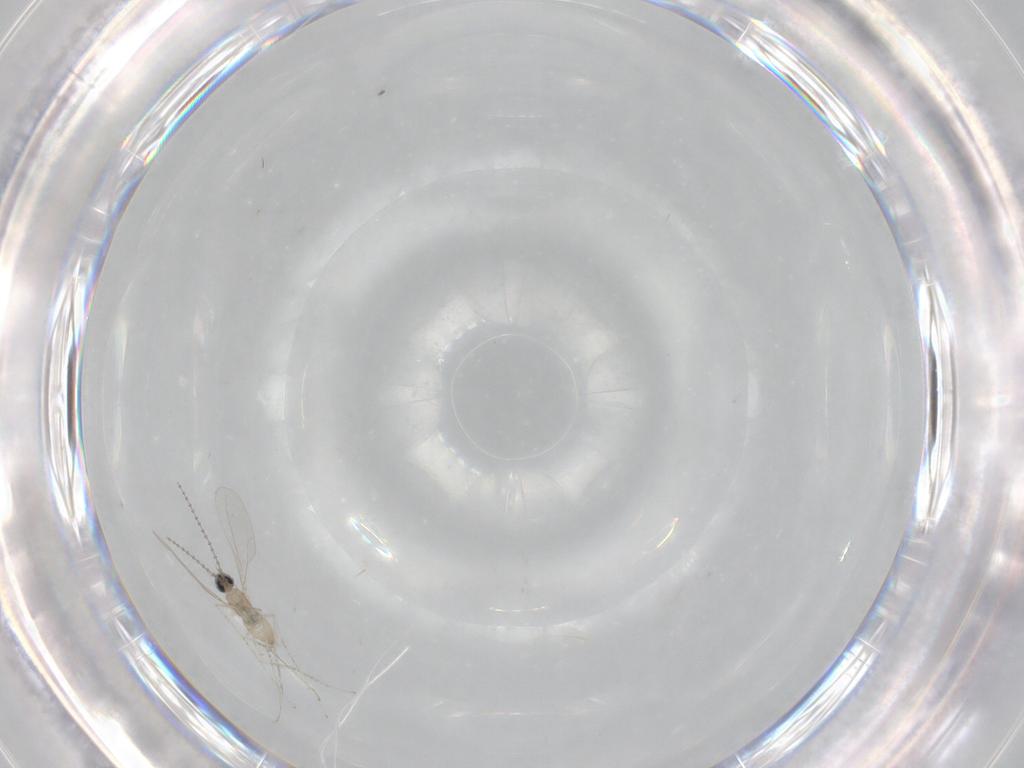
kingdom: Animalia
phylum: Arthropoda
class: Insecta
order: Diptera
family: Cecidomyiidae
